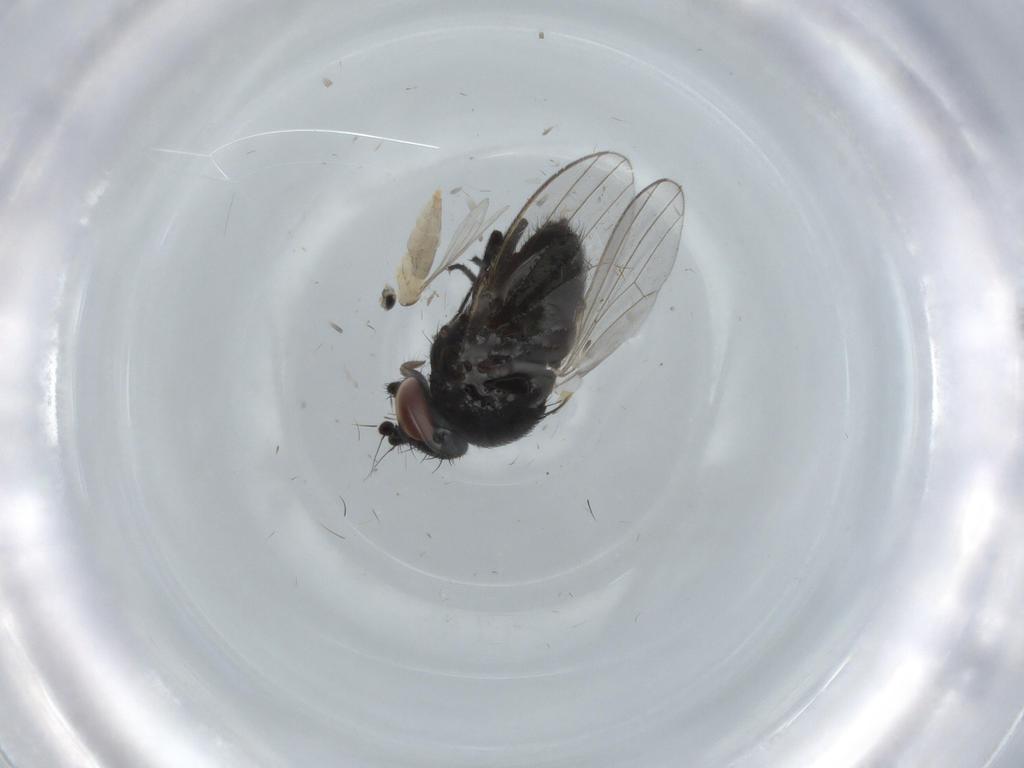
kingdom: Animalia
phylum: Arthropoda
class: Insecta
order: Diptera
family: Milichiidae
